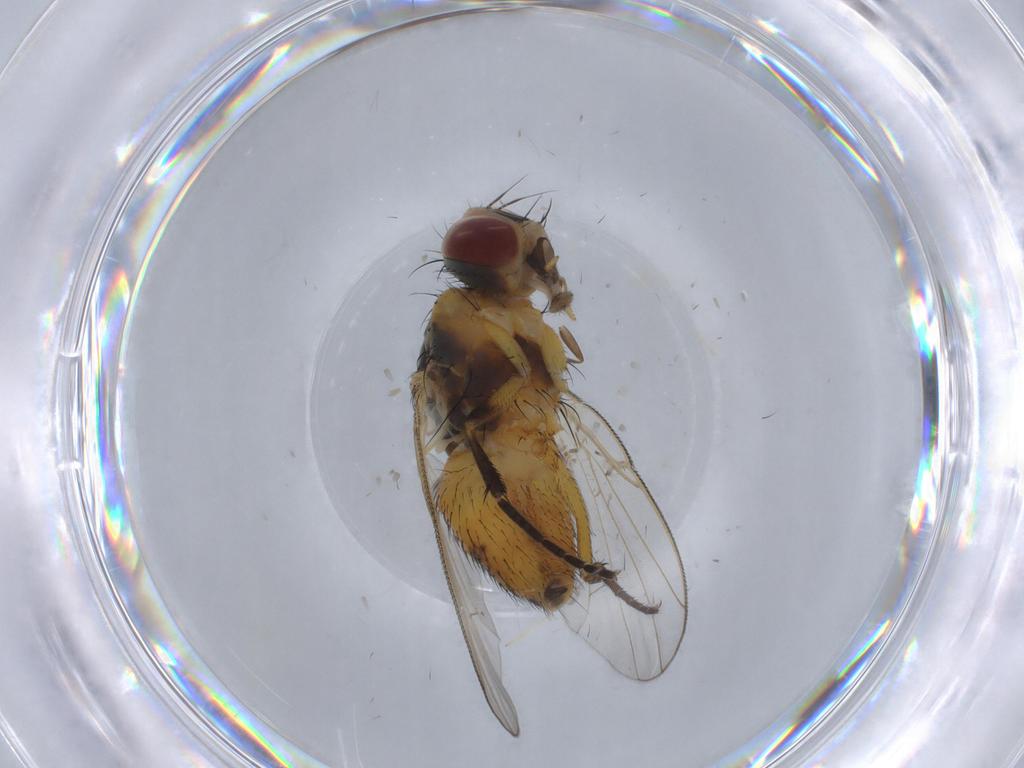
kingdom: Animalia
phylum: Arthropoda
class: Insecta
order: Diptera
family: Muscidae
